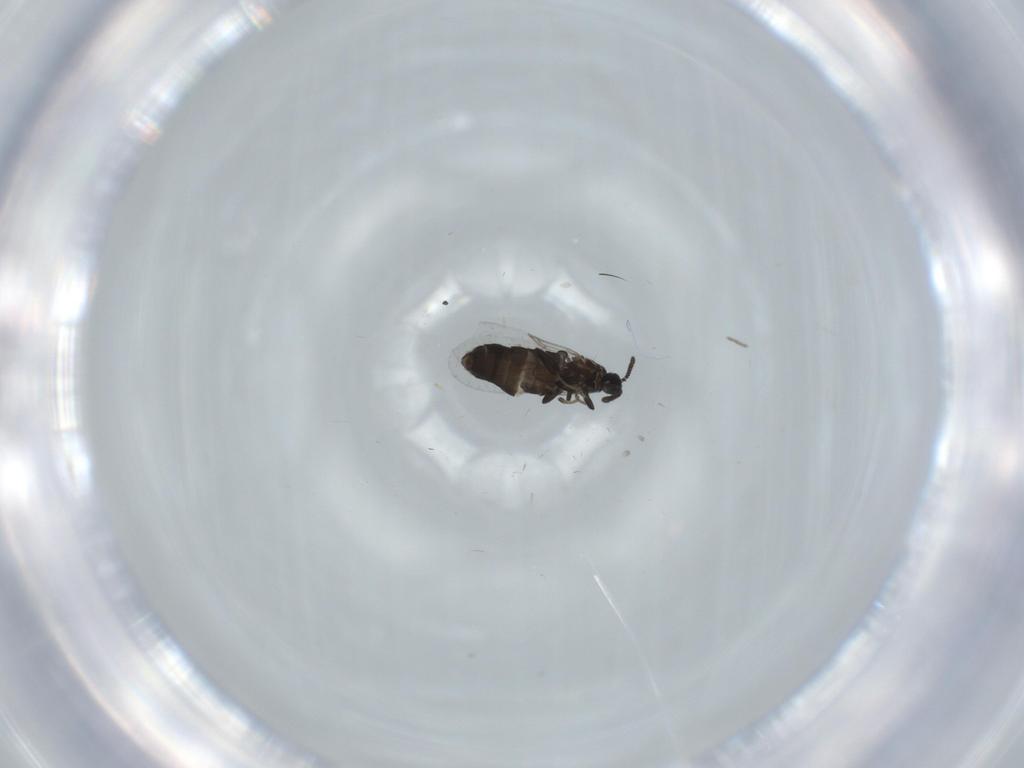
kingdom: Animalia
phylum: Arthropoda
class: Insecta
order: Diptera
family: Scatopsidae
